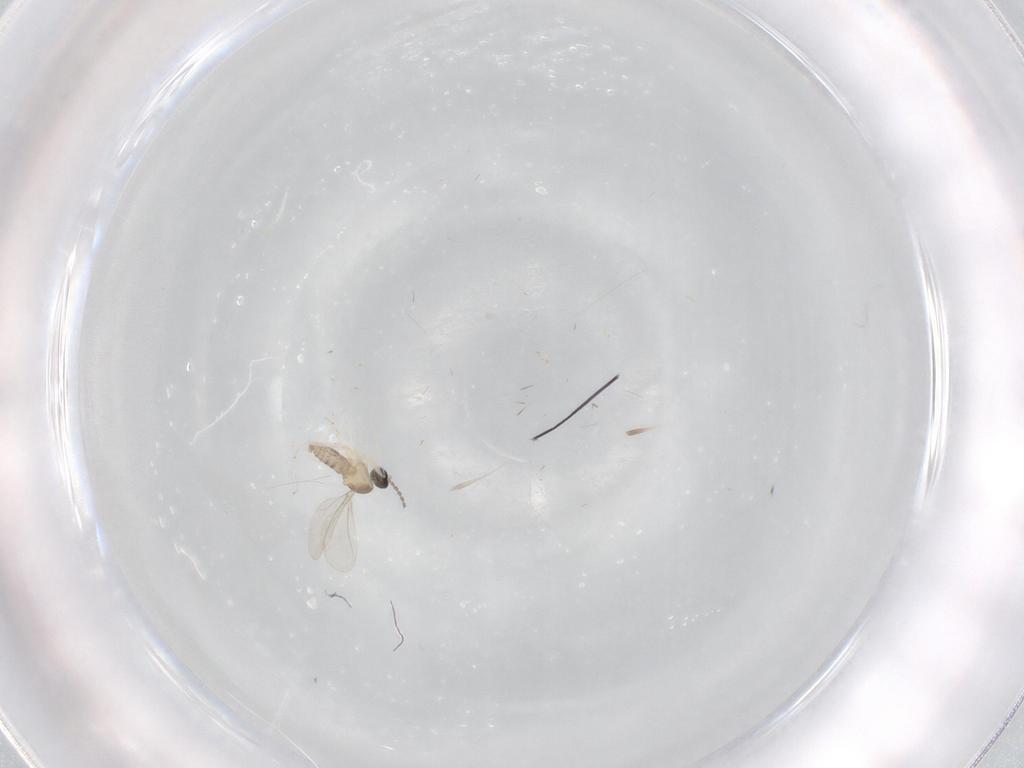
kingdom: Animalia
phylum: Arthropoda
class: Insecta
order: Diptera
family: Cecidomyiidae
